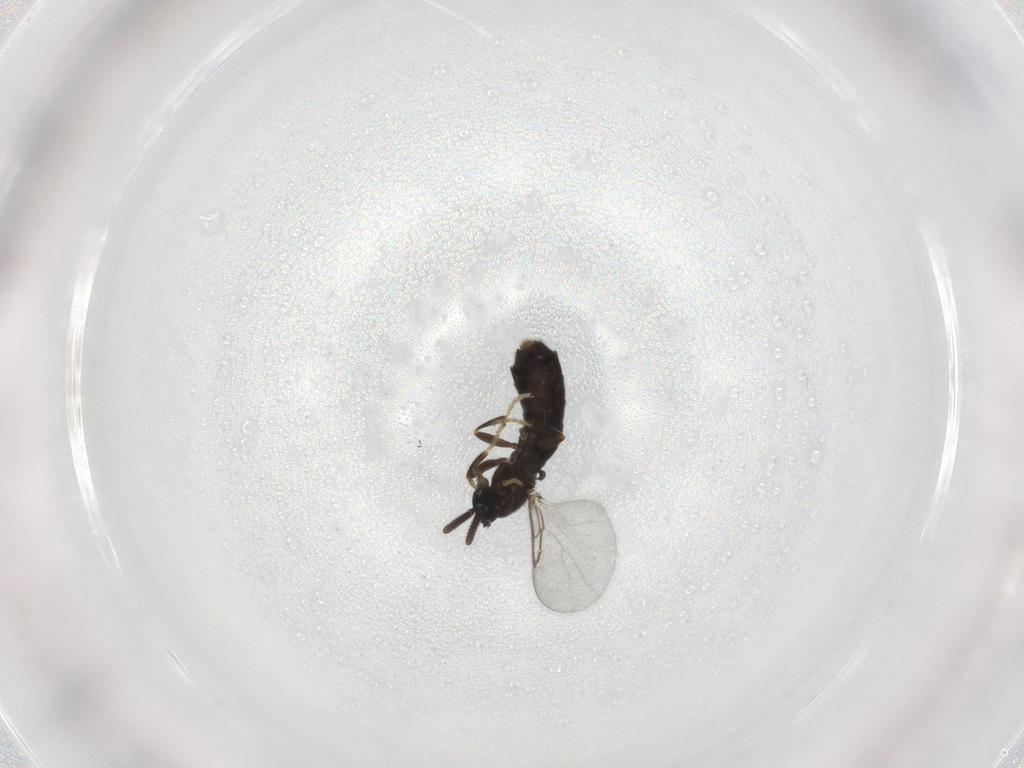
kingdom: Animalia
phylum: Arthropoda
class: Insecta
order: Diptera
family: Scatopsidae
